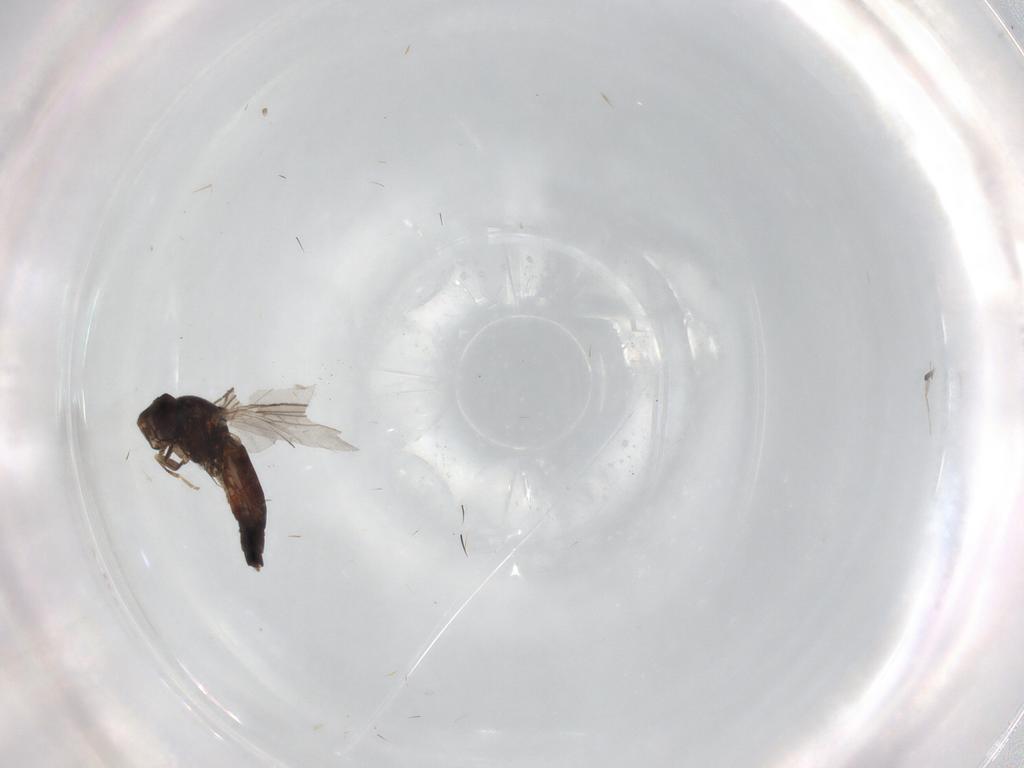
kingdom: Animalia
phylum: Arthropoda
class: Insecta
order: Diptera
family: Chloropidae
